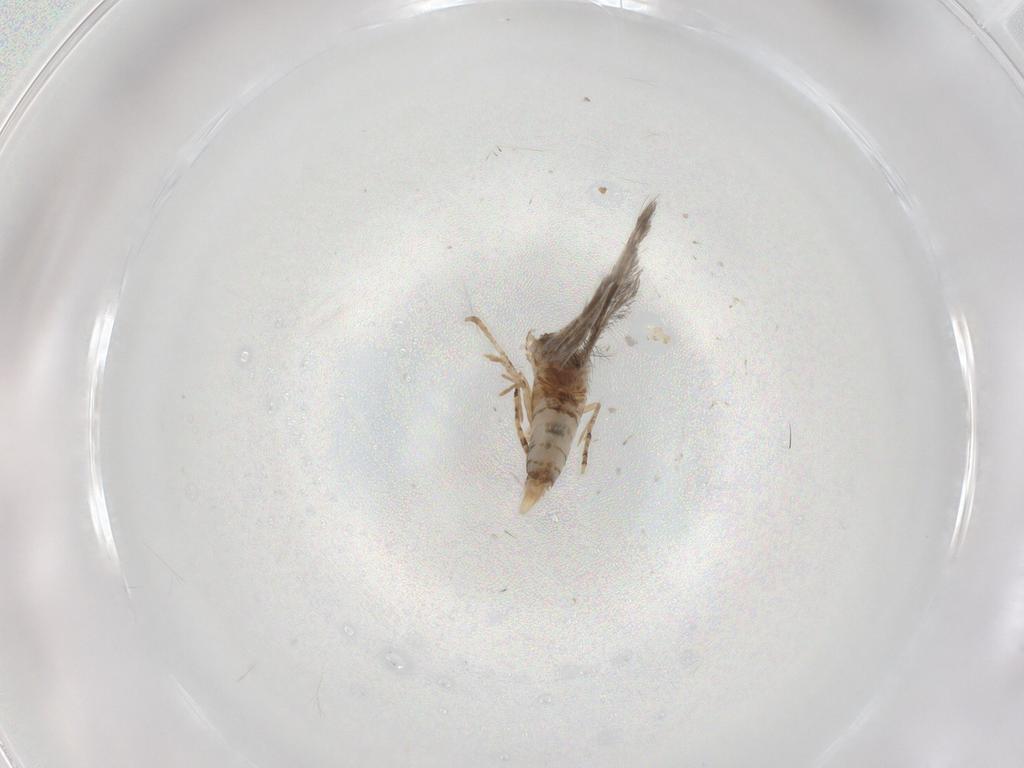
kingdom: Animalia
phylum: Arthropoda
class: Insecta
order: Lepidoptera
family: Elachistidae
